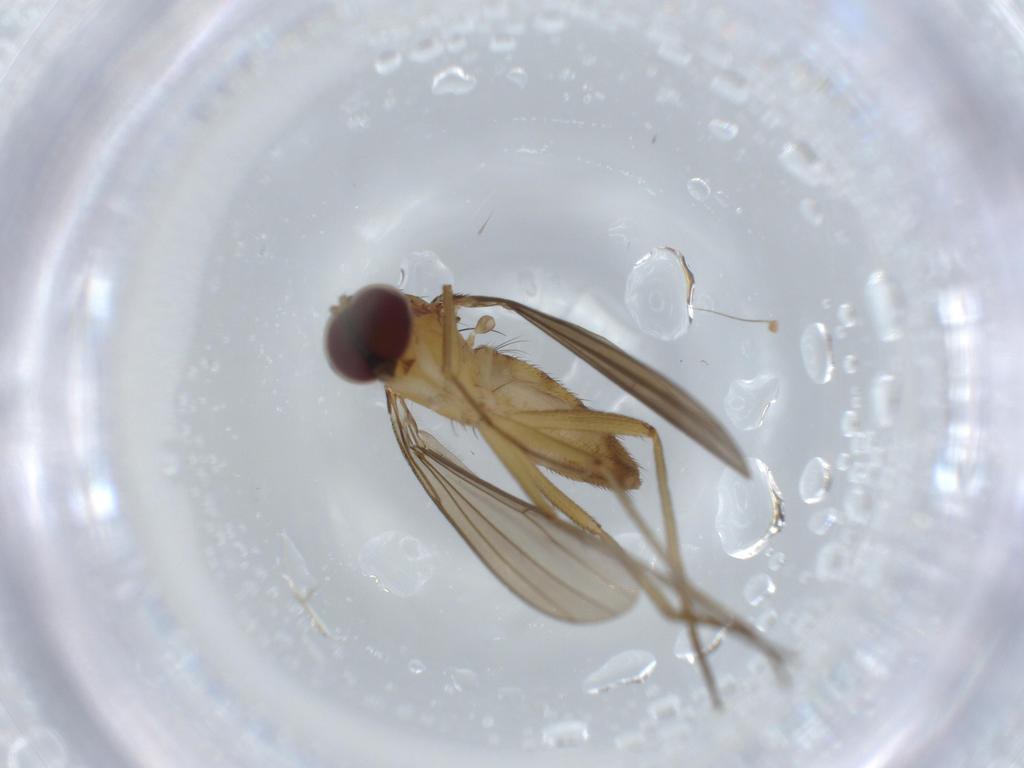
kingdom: Animalia
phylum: Arthropoda
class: Insecta
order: Diptera
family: Dolichopodidae
